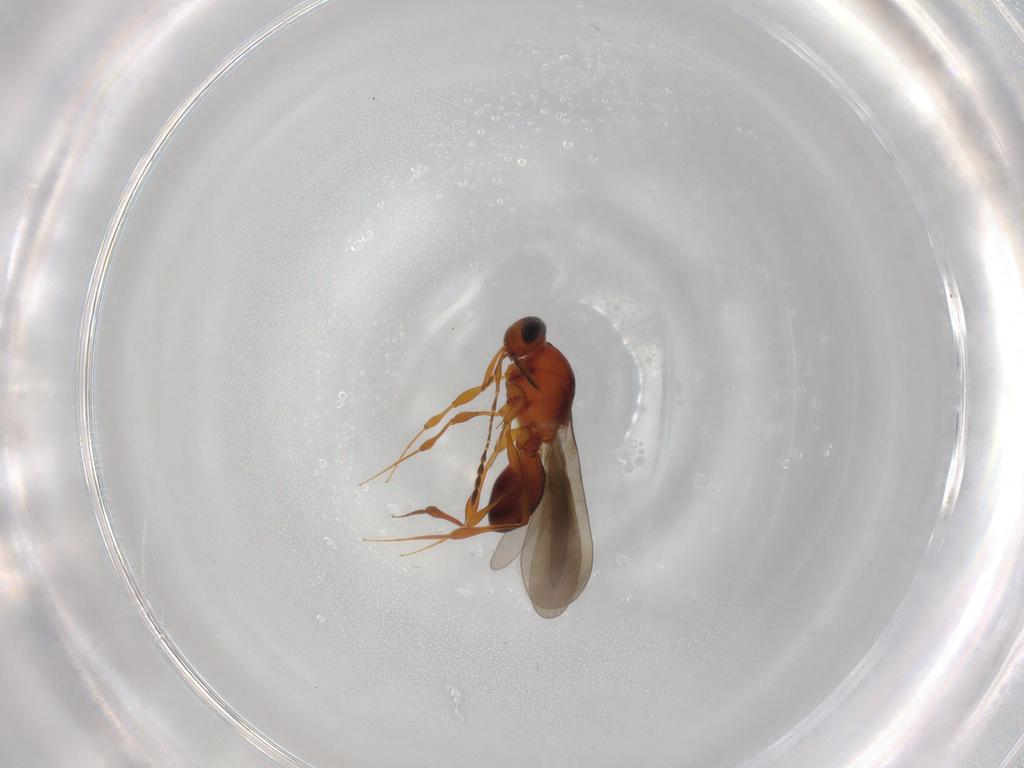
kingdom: Animalia
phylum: Arthropoda
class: Insecta
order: Hymenoptera
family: Platygastridae
